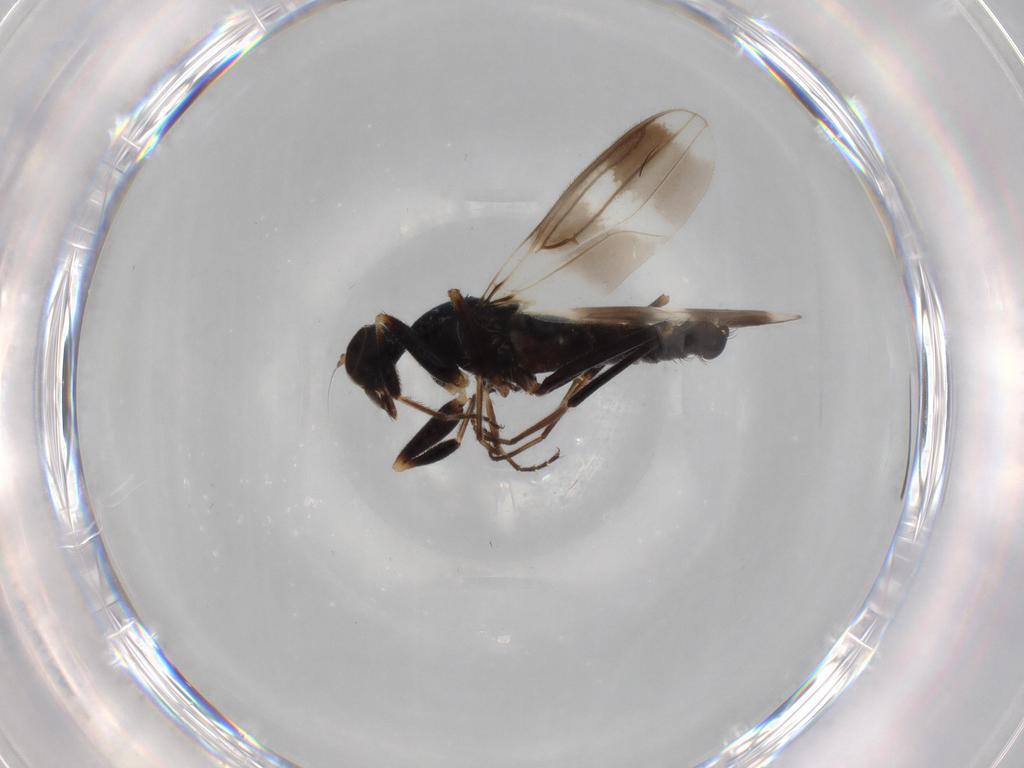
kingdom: Animalia
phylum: Arthropoda
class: Insecta
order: Diptera
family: Hybotidae
